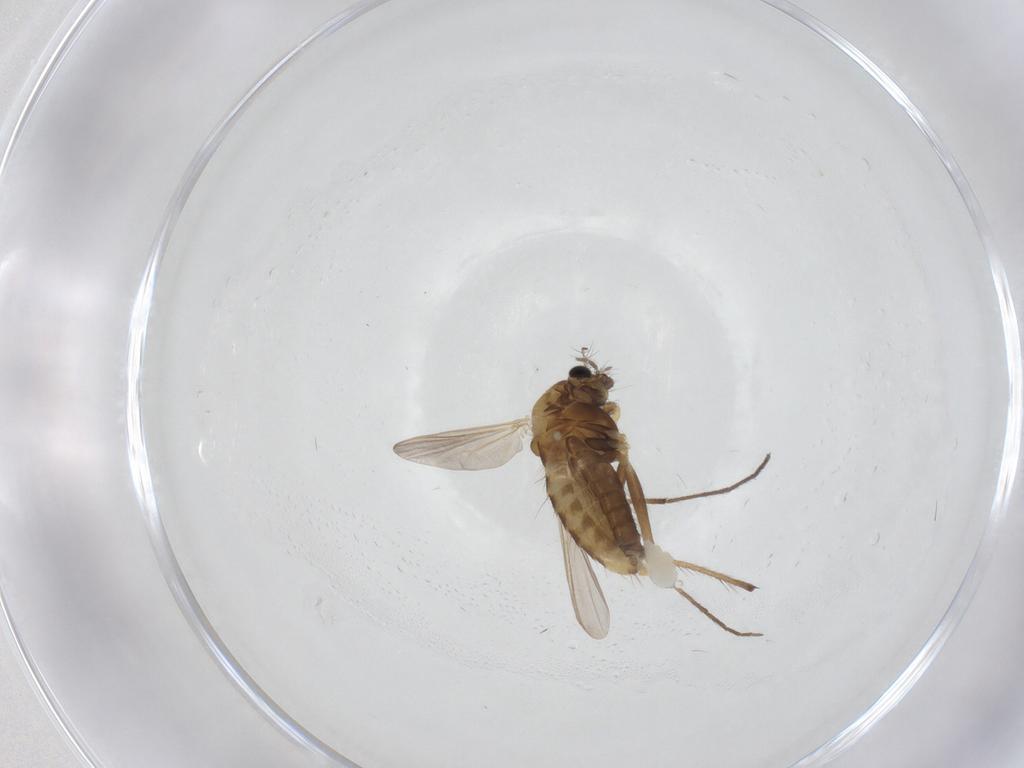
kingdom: Animalia
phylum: Arthropoda
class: Insecta
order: Diptera
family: Chironomidae
